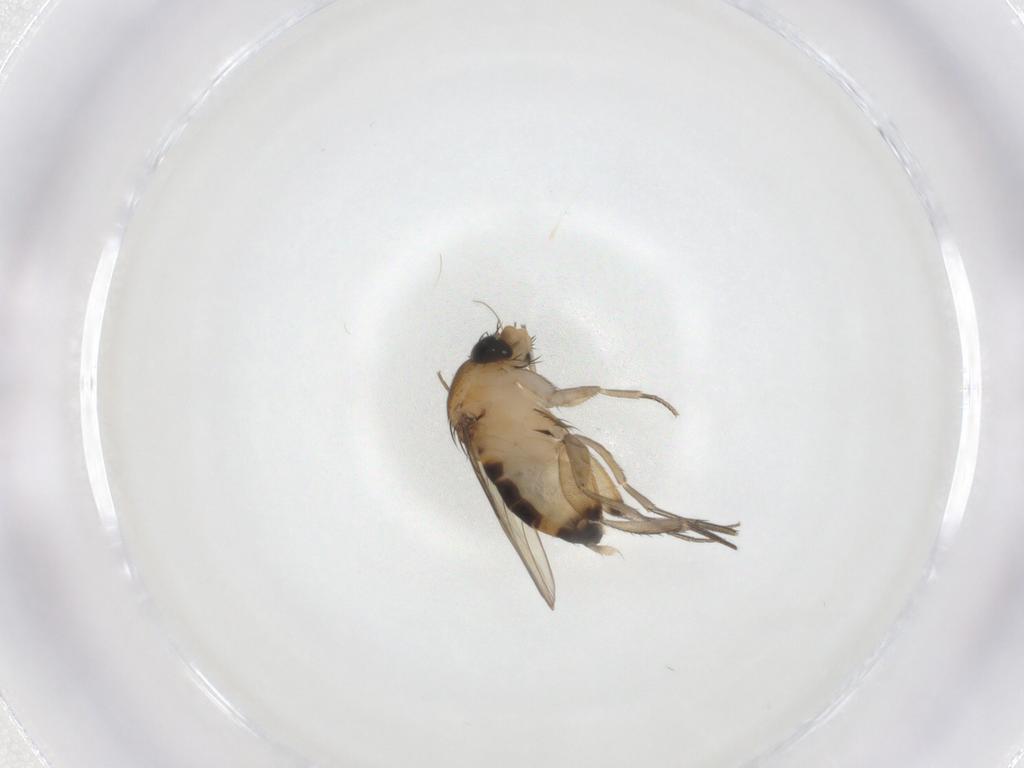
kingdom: Animalia
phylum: Arthropoda
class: Insecta
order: Diptera
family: Phoridae
